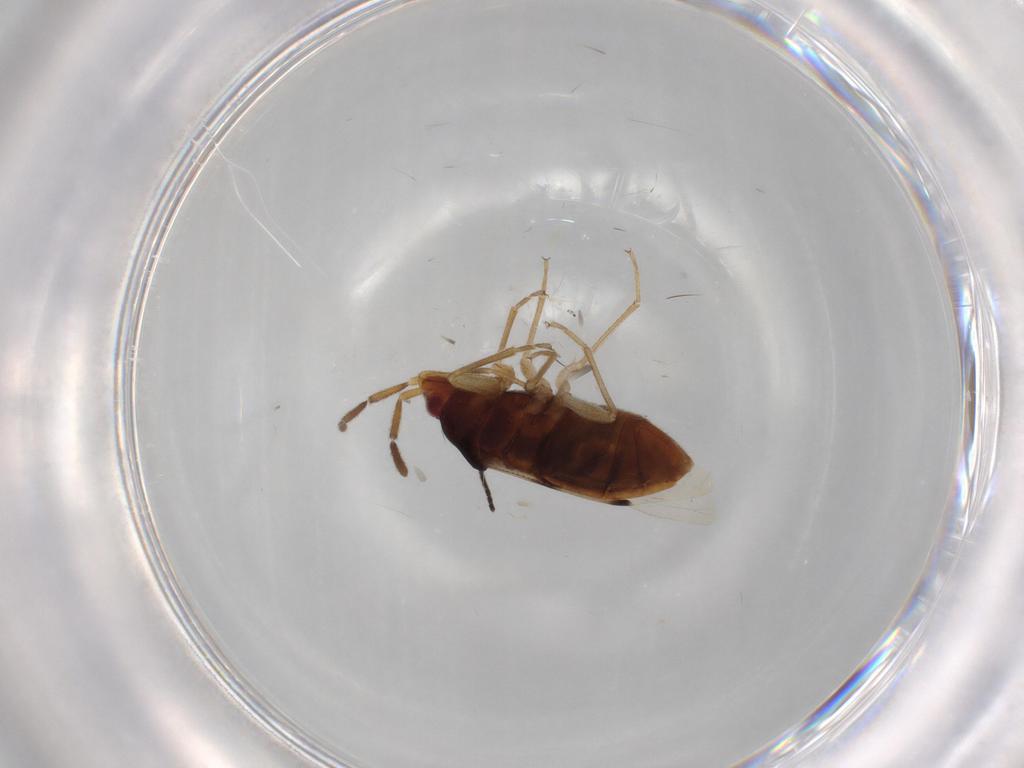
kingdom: Animalia
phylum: Arthropoda
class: Insecta
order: Hemiptera
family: Rhyparochromidae
